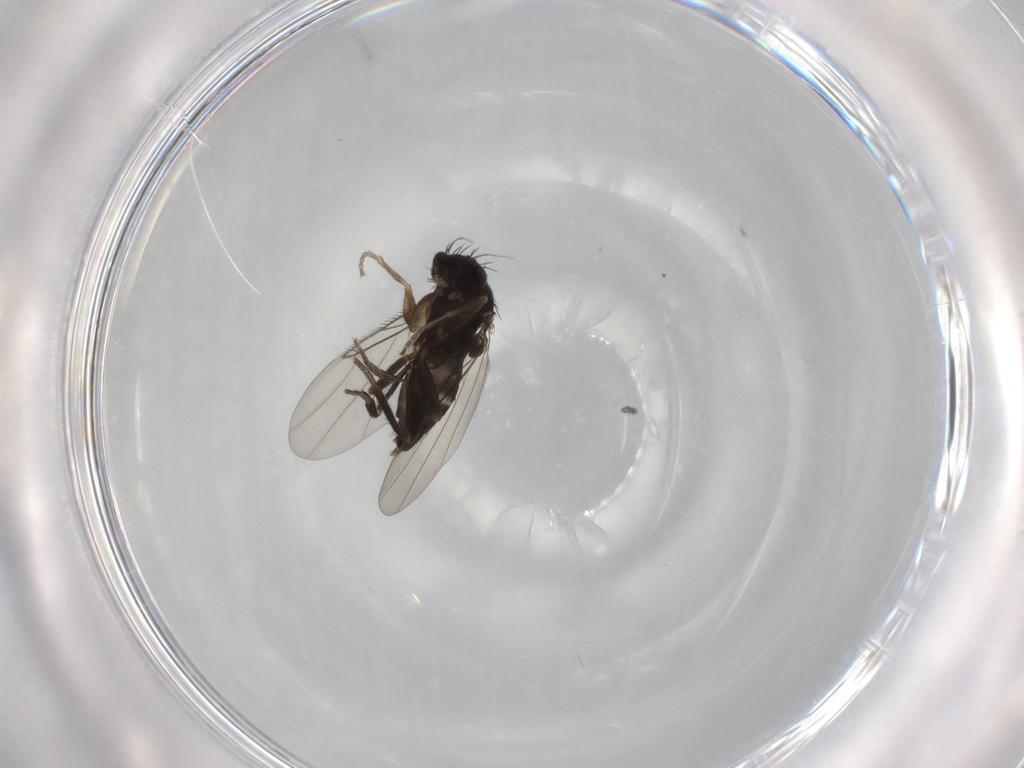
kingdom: Animalia
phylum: Arthropoda
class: Insecta
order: Diptera
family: Phoridae
